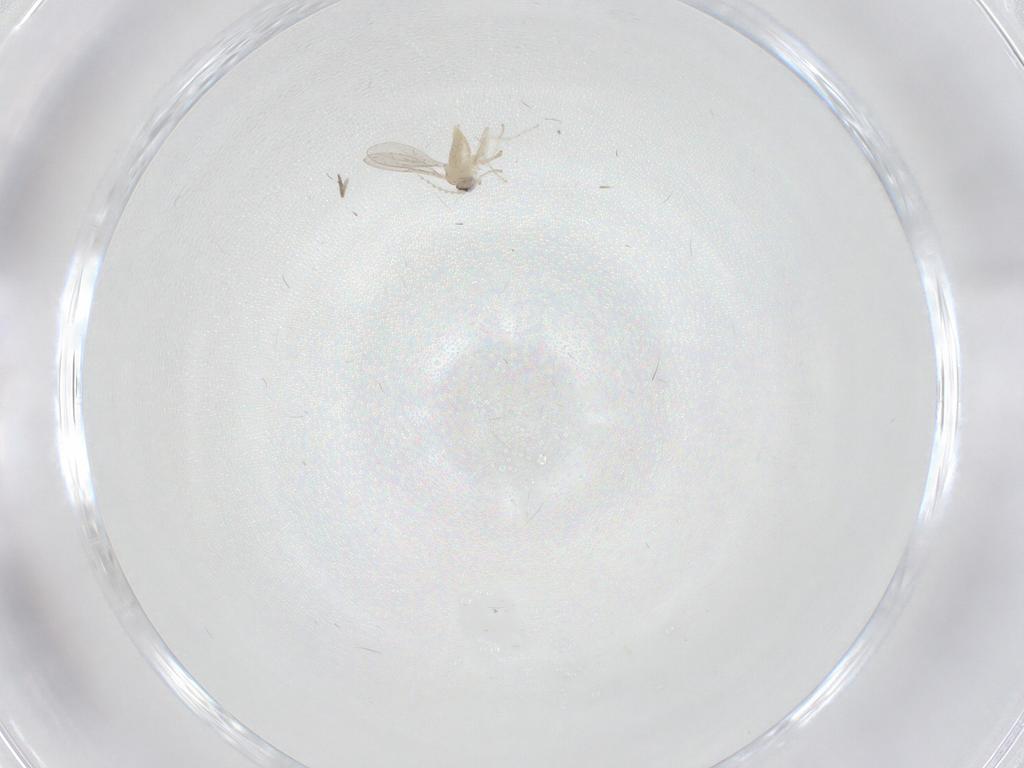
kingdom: Animalia
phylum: Arthropoda
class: Insecta
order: Diptera
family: Cecidomyiidae
